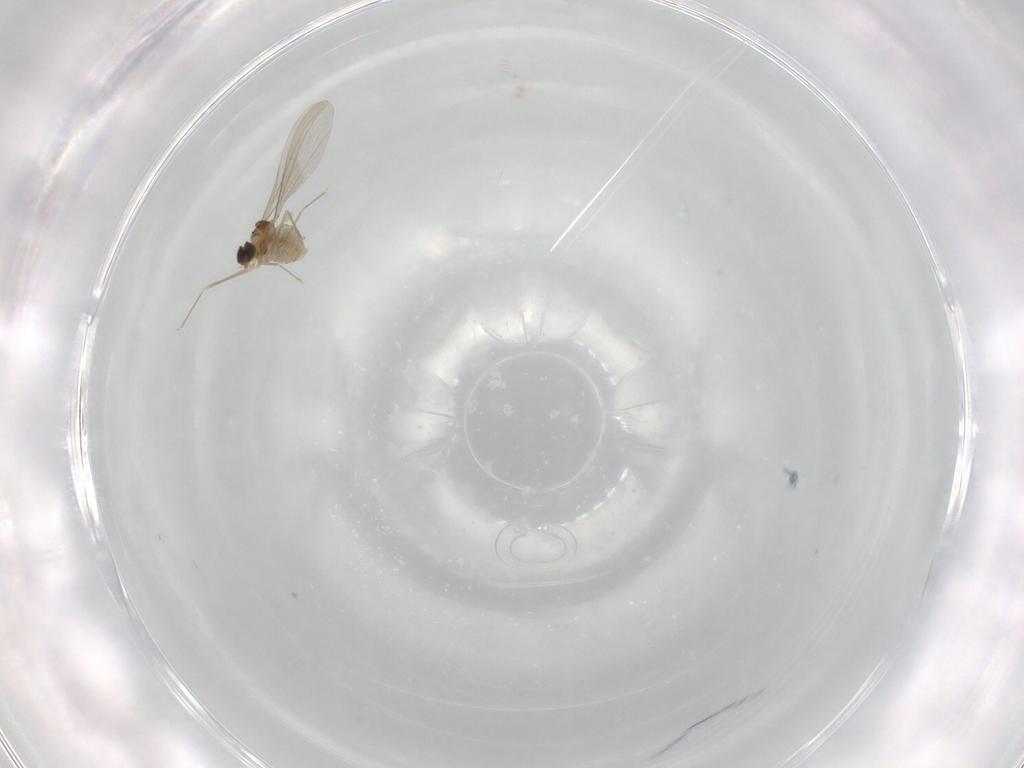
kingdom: Animalia
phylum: Arthropoda
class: Insecta
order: Diptera
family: Cecidomyiidae
